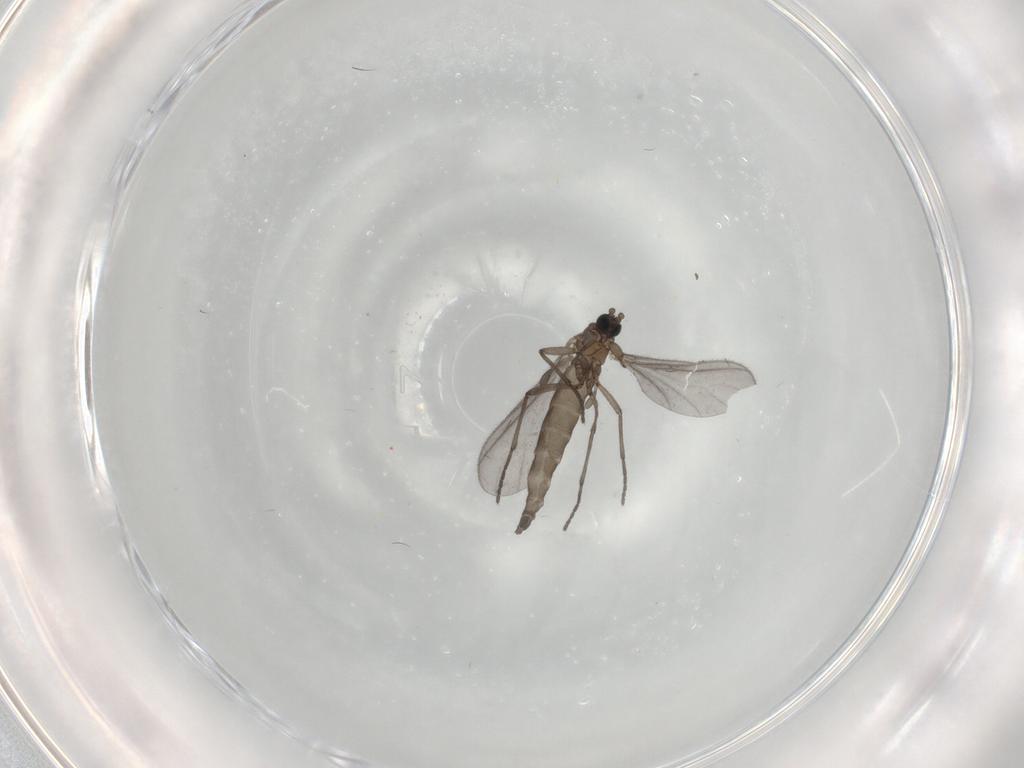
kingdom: Animalia
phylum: Arthropoda
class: Insecta
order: Diptera
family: Sciaridae
